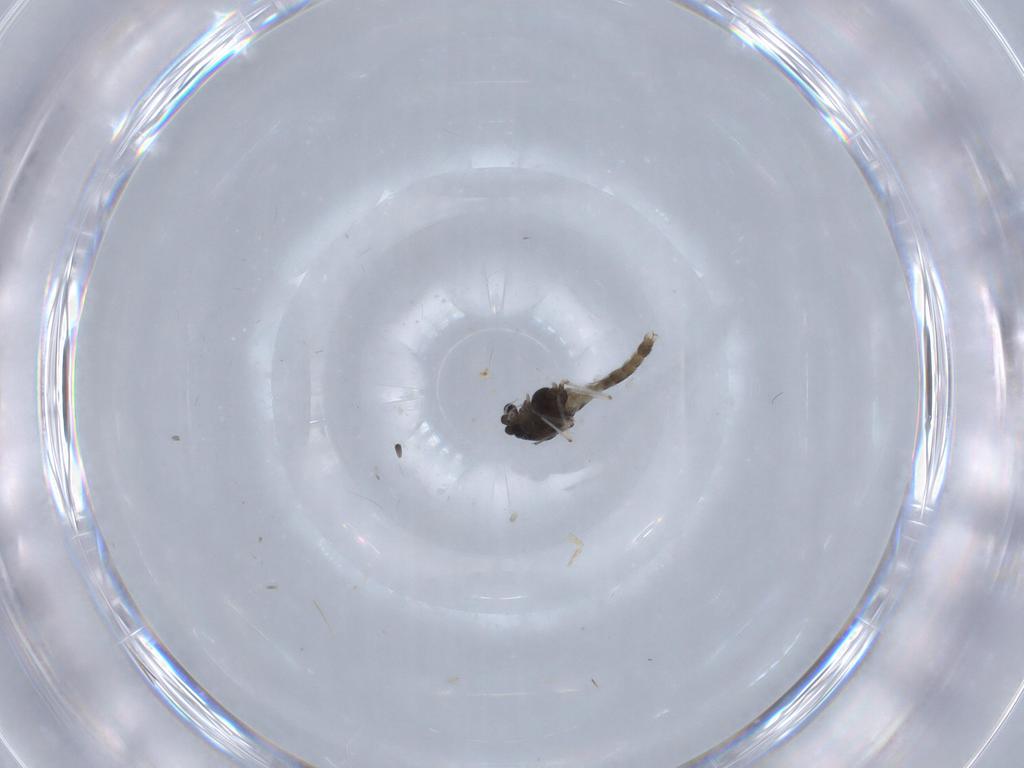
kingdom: Animalia
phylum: Arthropoda
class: Insecta
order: Diptera
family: Chironomidae
